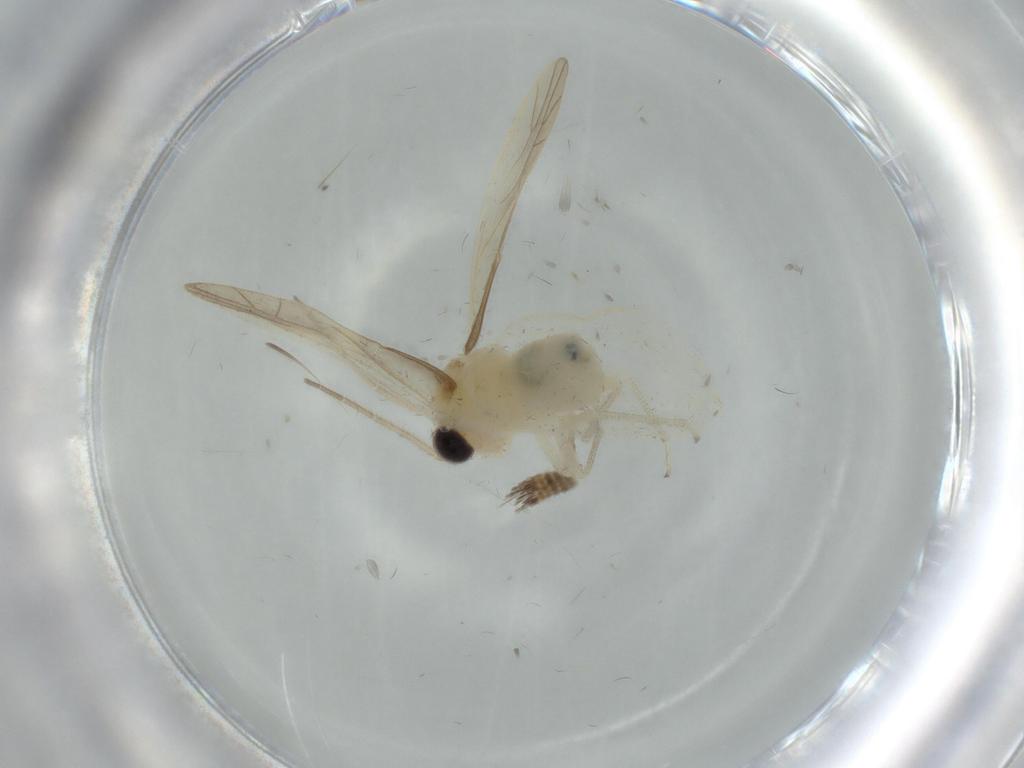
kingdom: Animalia
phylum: Arthropoda
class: Insecta
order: Psocodea
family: Caeciliusidae
